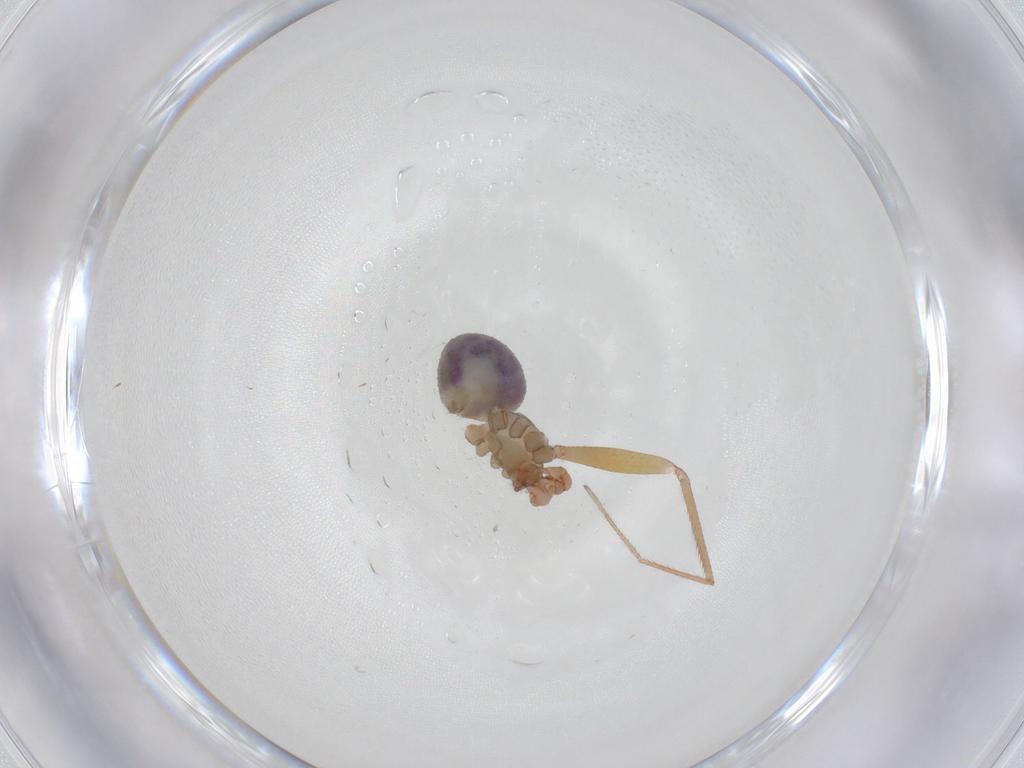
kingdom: Animalia
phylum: Arthropoda
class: Arachnida
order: Araneae
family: Pholcidae
